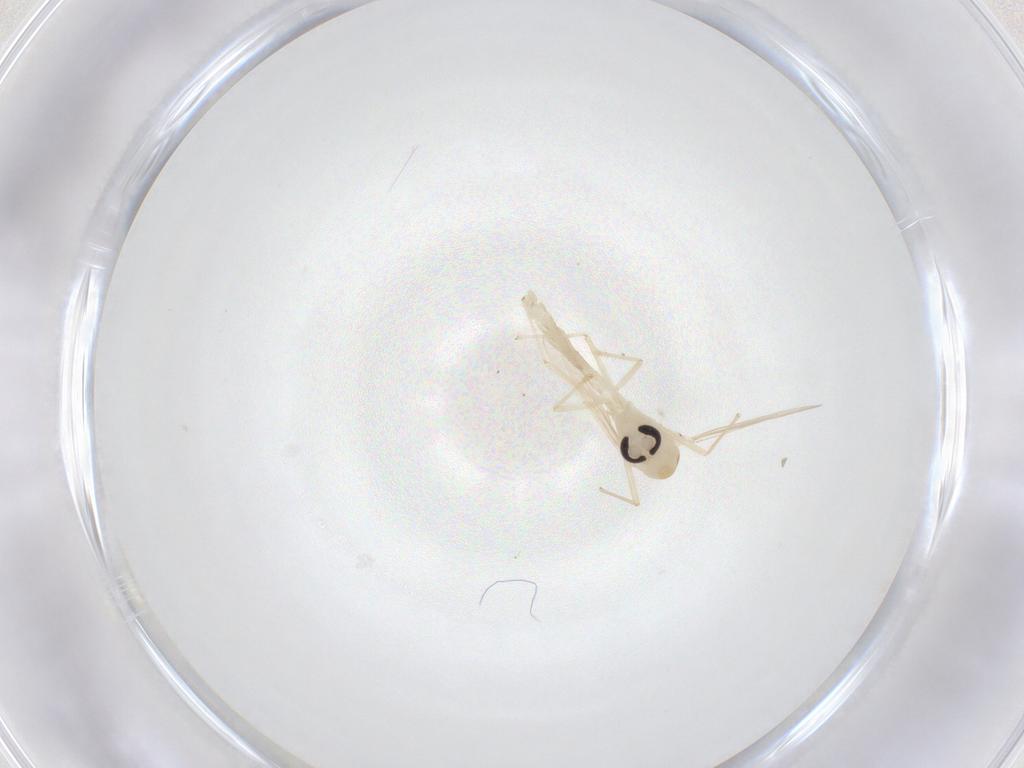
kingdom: Animalia
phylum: Arthropoda
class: Insecta
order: Diptera
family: Chironomidae
